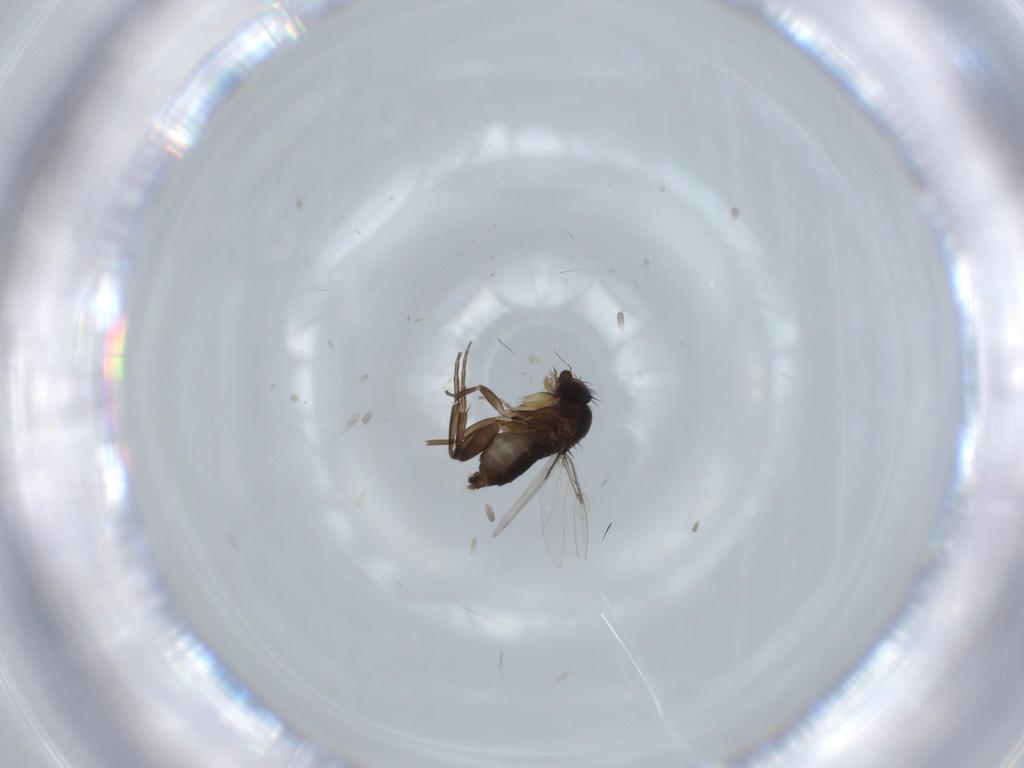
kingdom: Animalia
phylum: Arthropoda
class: Insecta
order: Diptera
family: Phoridae
